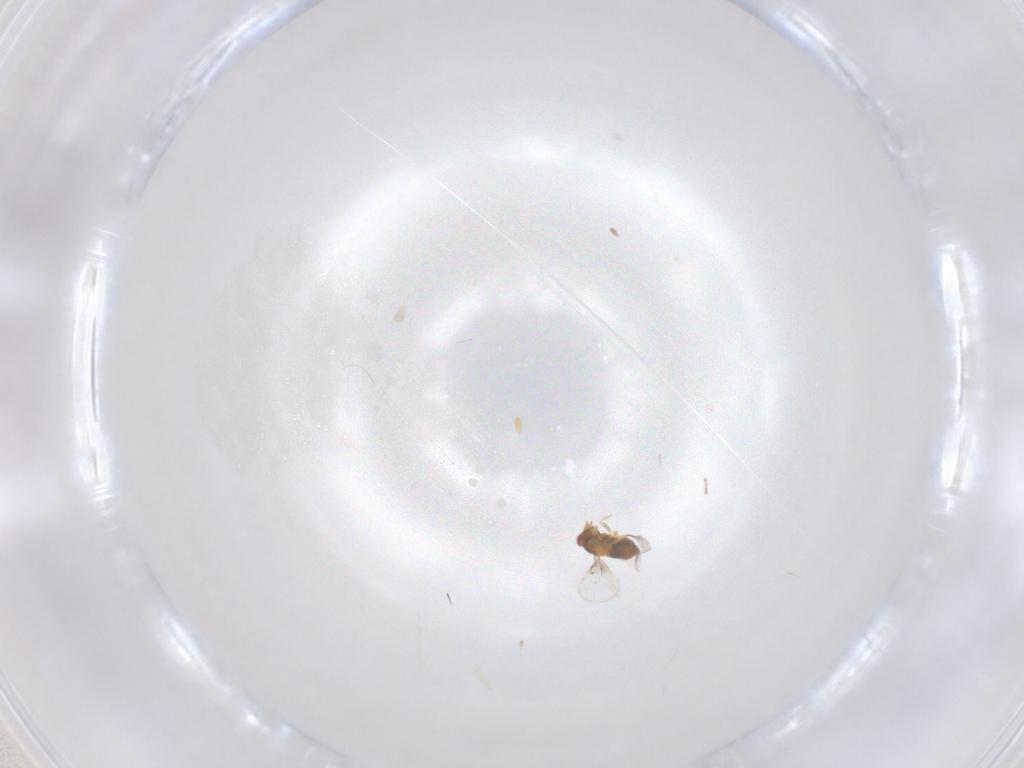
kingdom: Animalia
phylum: Arthropoda
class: Insecta
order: Hymenoptera
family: Trichogrammatidae
